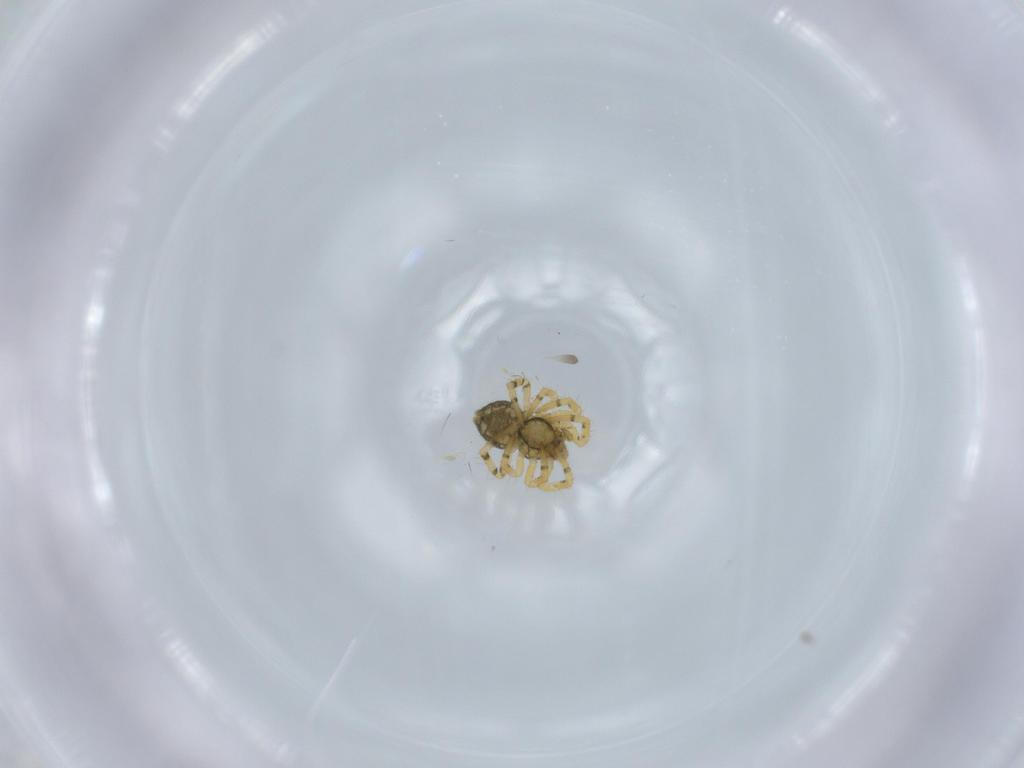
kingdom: Animalia
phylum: Arthropoda
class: Arachnida
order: Araneae
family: Theridiidae
